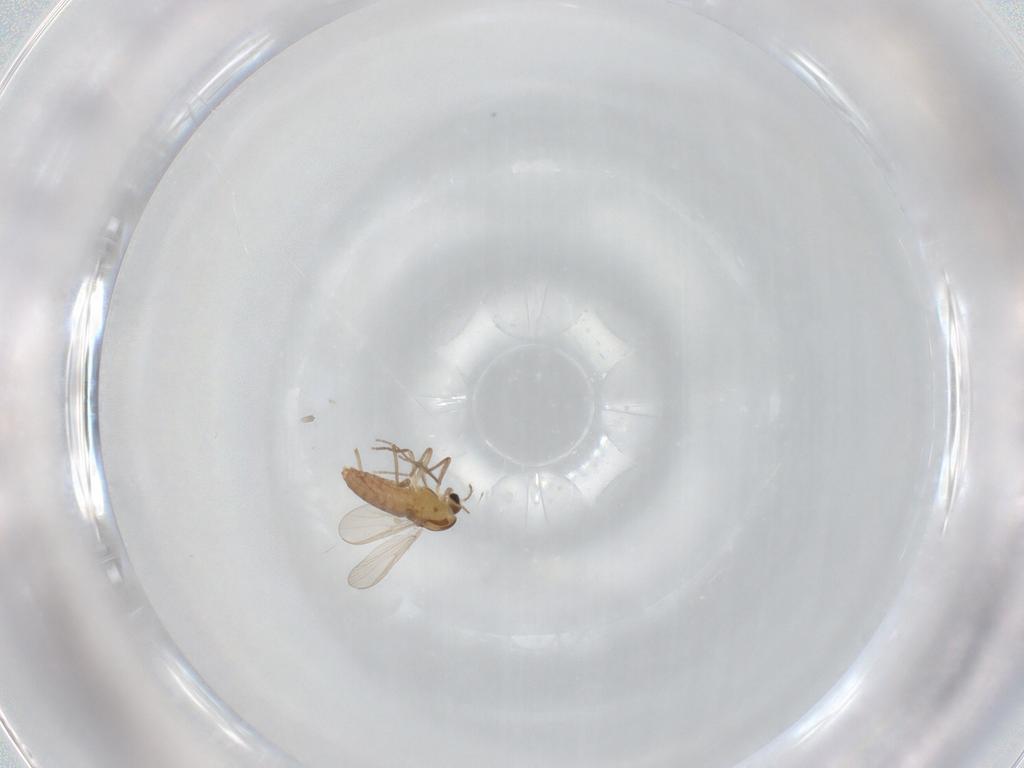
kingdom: Animalia
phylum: Arthropoda
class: Insecta
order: Diptera
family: Chironomidae
